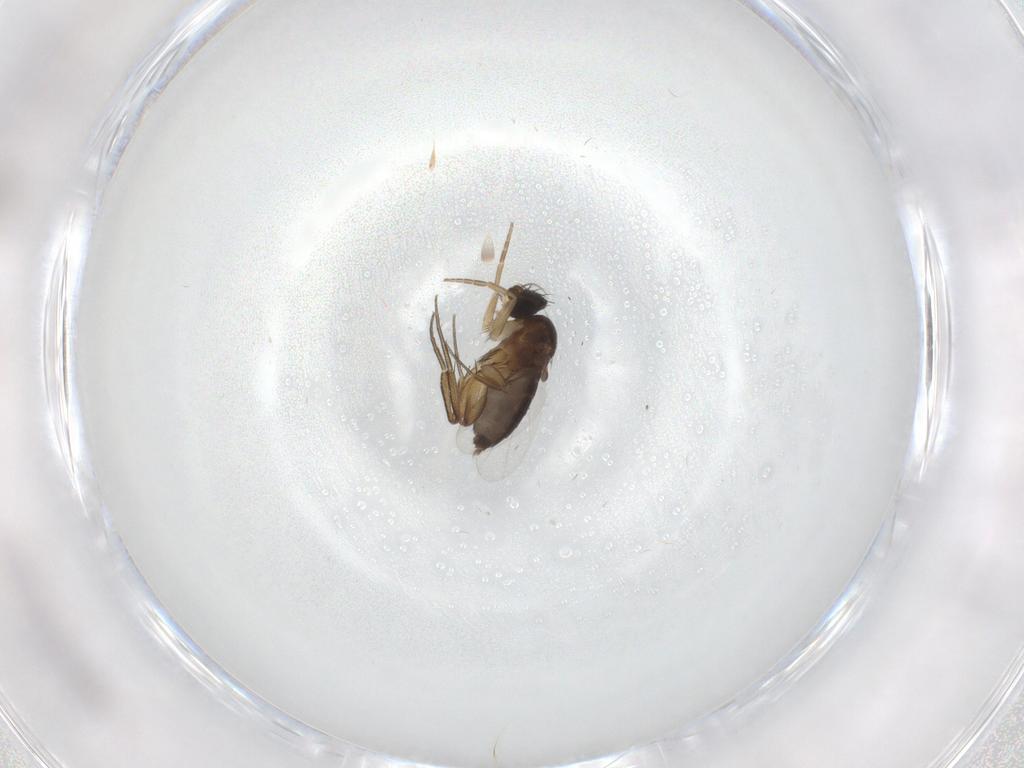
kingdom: Animalia
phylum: Arthropoda
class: Insecta
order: Diptera
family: Phoridae
